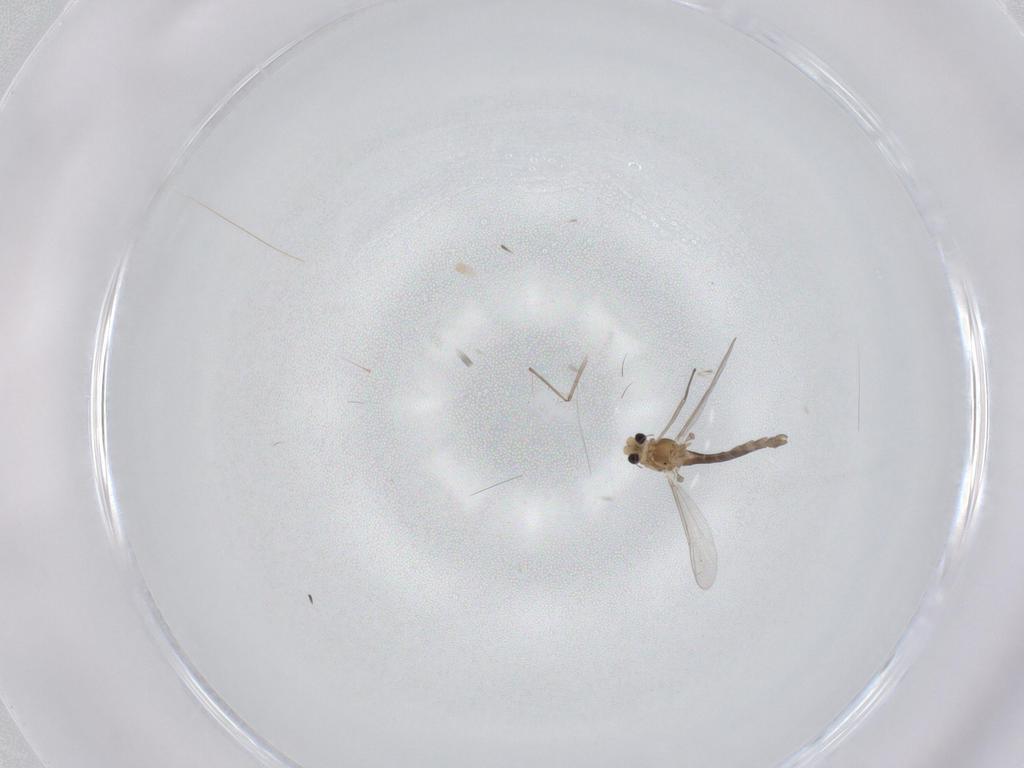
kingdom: Animalia
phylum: Arthropoda
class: Insecta
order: Diptera
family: Chironomidae
